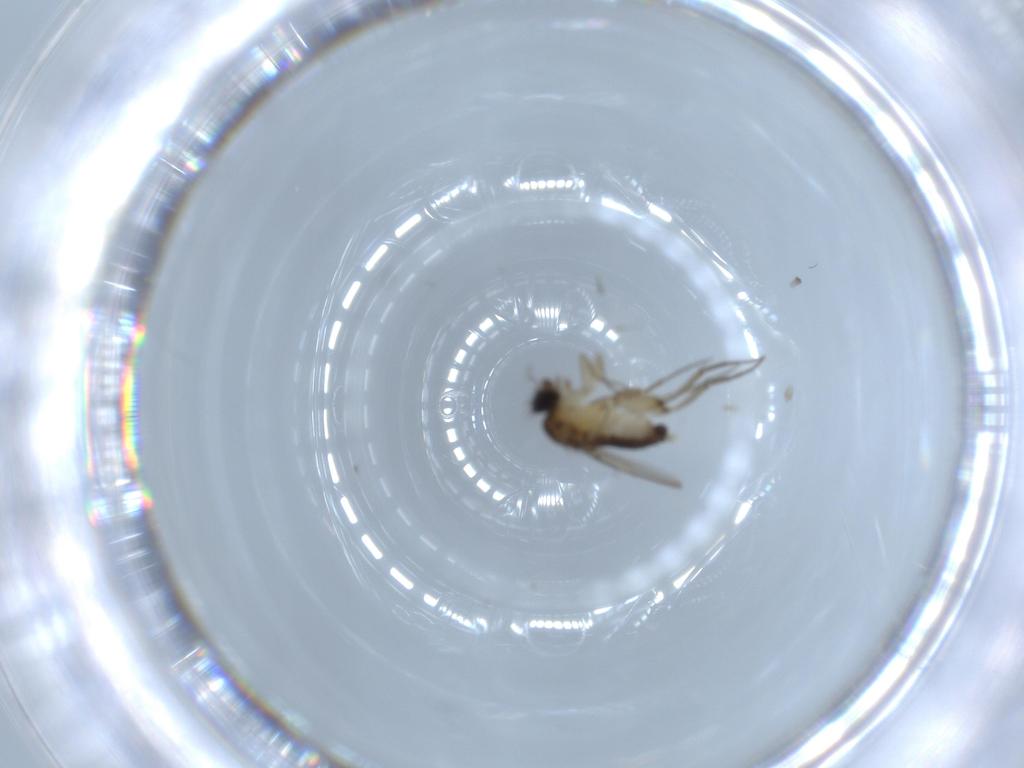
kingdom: Animalia
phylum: Arthropoda
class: Insecta
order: Diptera
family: Phoridae
